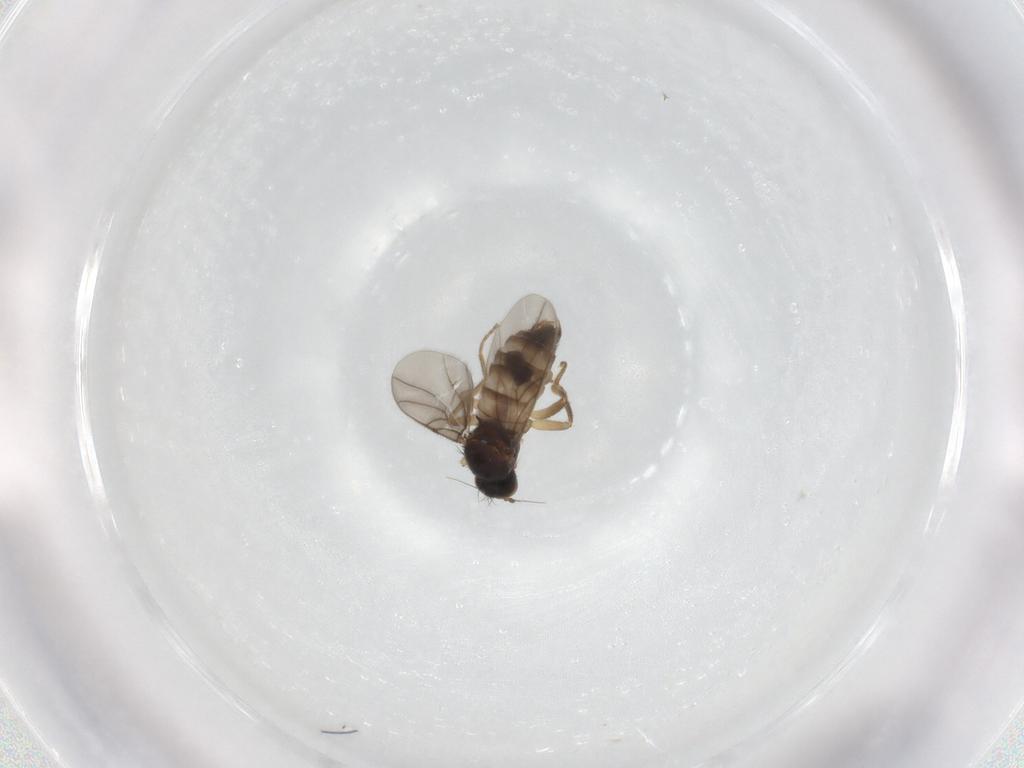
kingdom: Animalia
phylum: Arthropoda
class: Insecta
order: Diptera
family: Hybotidae
